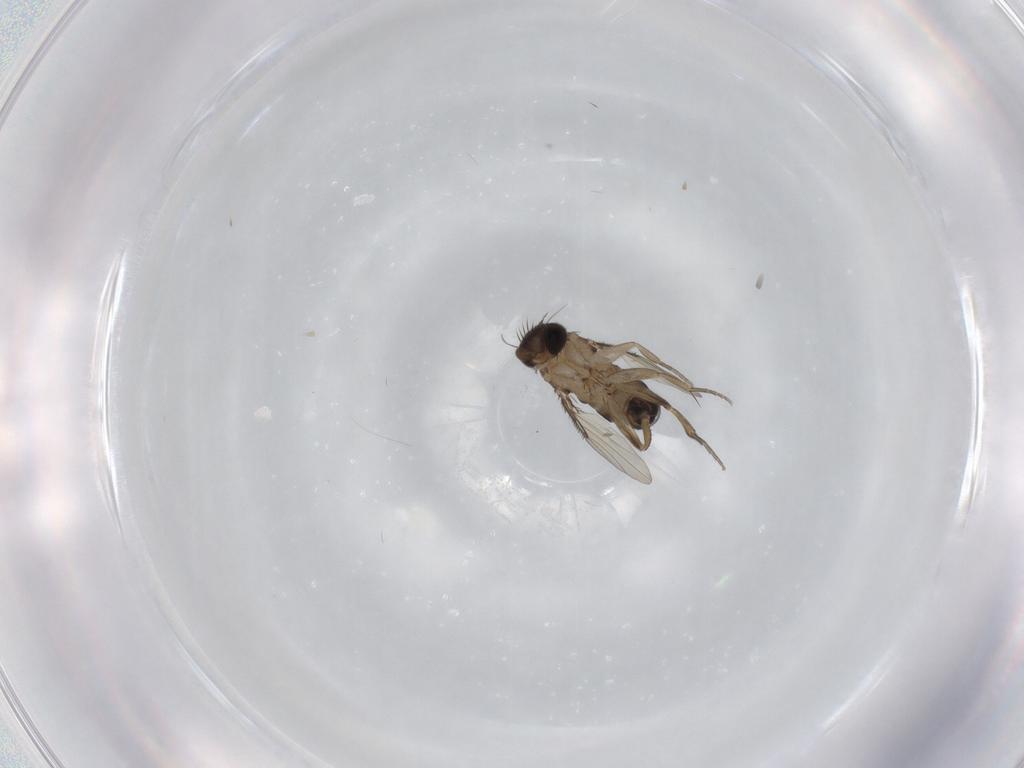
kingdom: Animalia
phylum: Arthropoda
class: Insecta
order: Diptera
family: Phoridae
